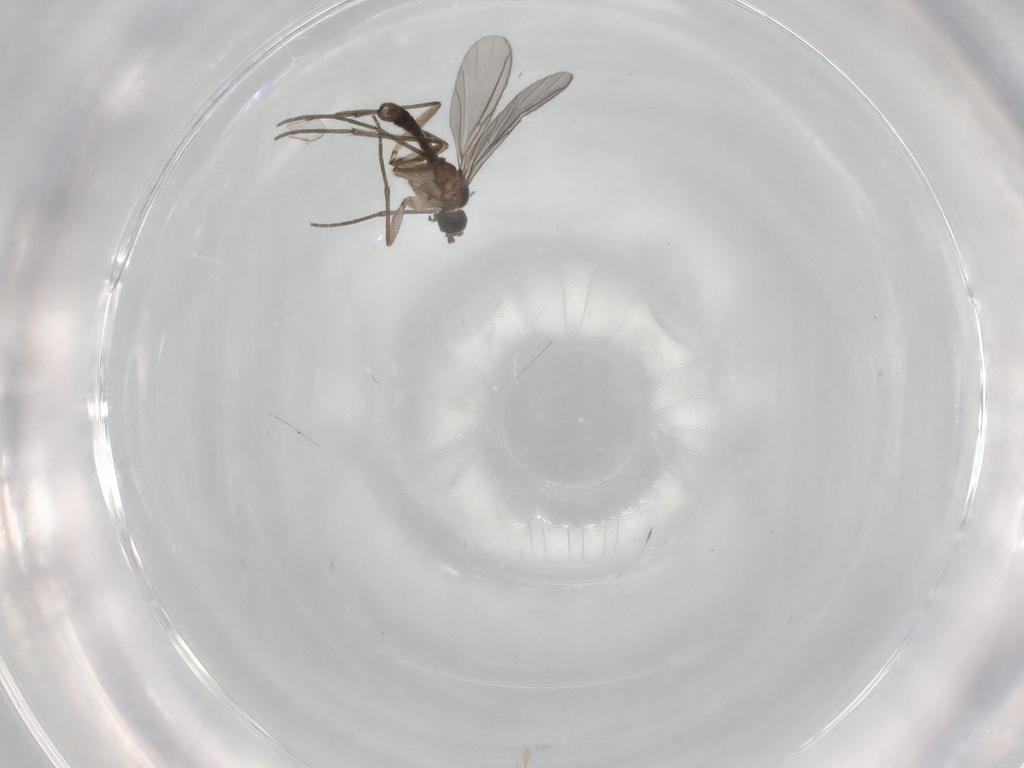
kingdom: Animalia
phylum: Arthropoda
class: Insecta
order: Diptera
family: Sciaridae
